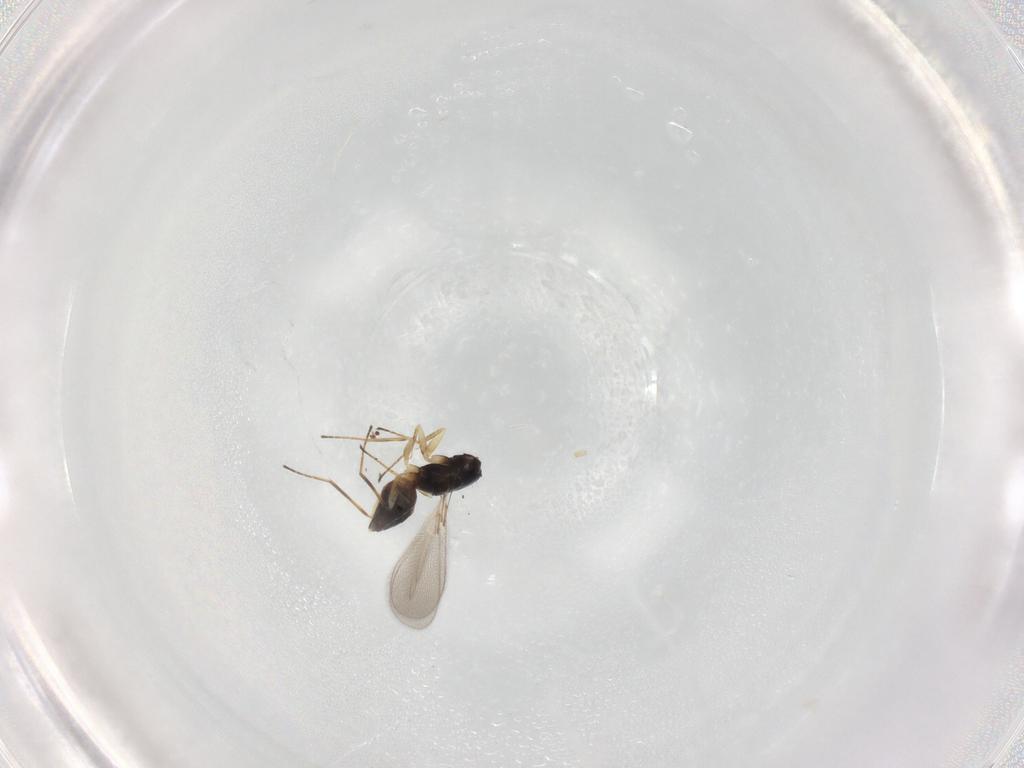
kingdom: Animalia
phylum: Arthropoda
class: Insecta
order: Hymenoptera
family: Mymaridae
